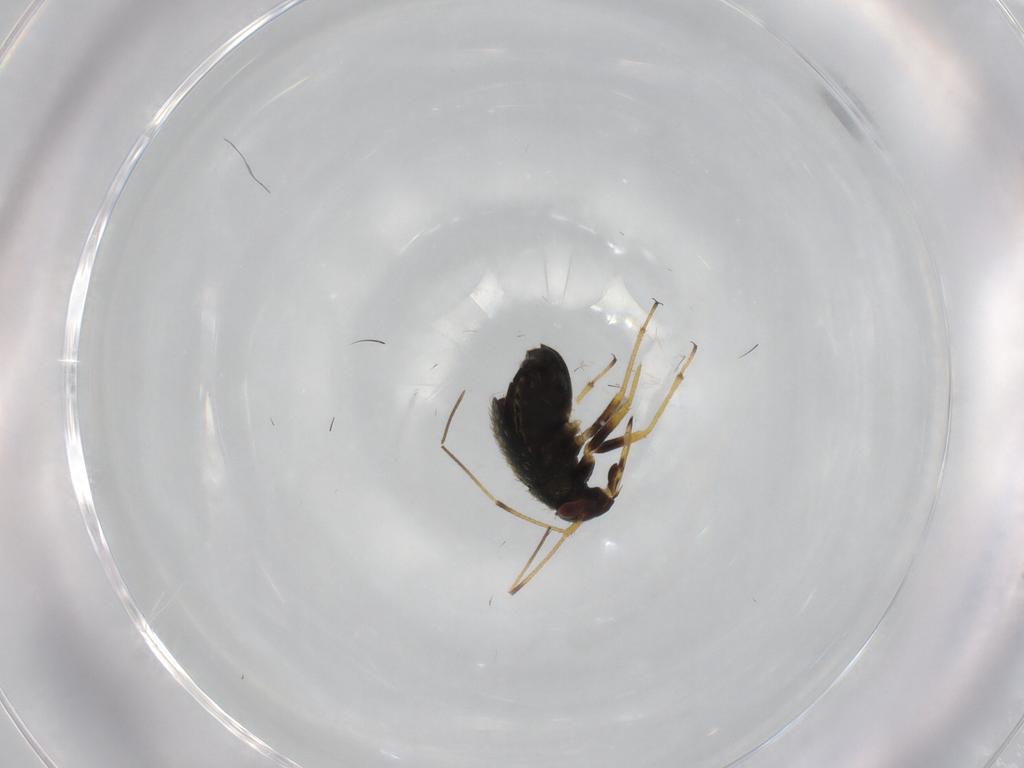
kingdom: Animalia
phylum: Arthropoda
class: Insecta
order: Hemiptera
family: Miridae
